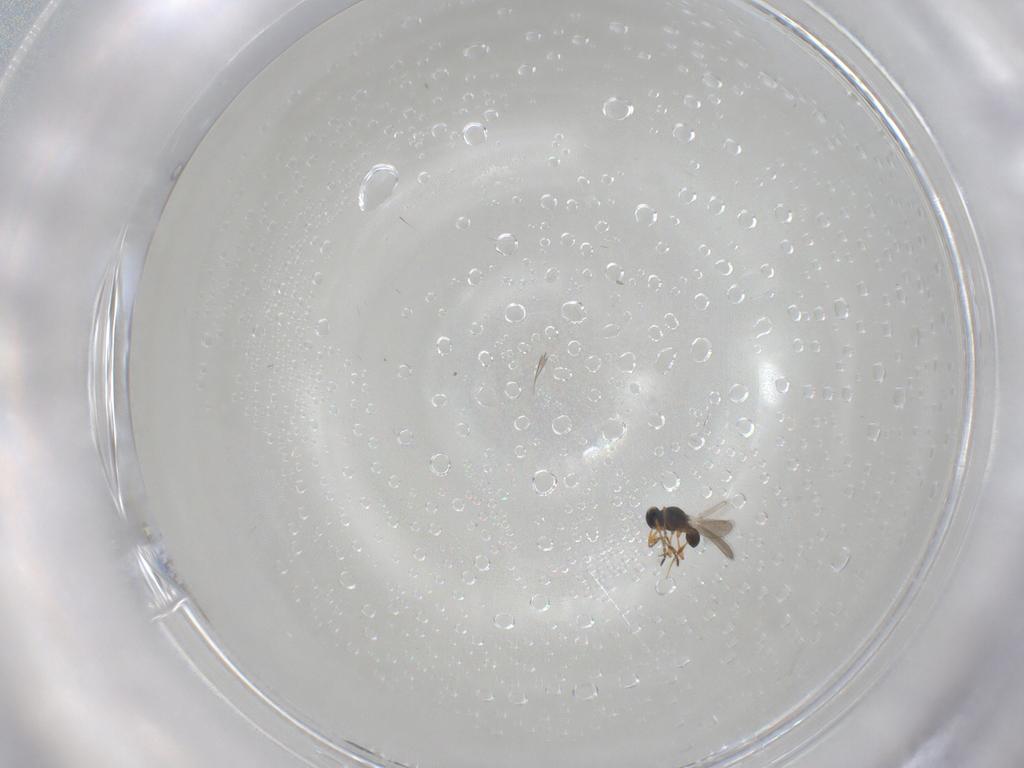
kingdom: Animalia
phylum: Arthropoda
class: Insecta
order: Hymenoptera
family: Platygastridae
